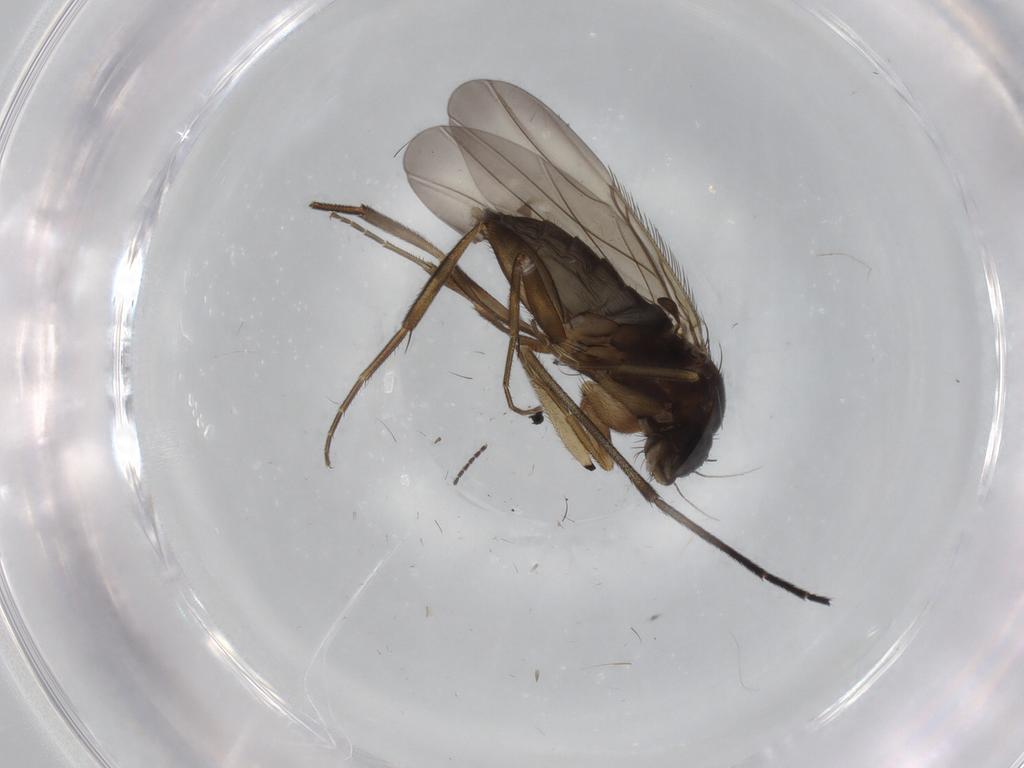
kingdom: Animalia
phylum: Arthropoda
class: Insecta
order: Diptera
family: Phoridae
